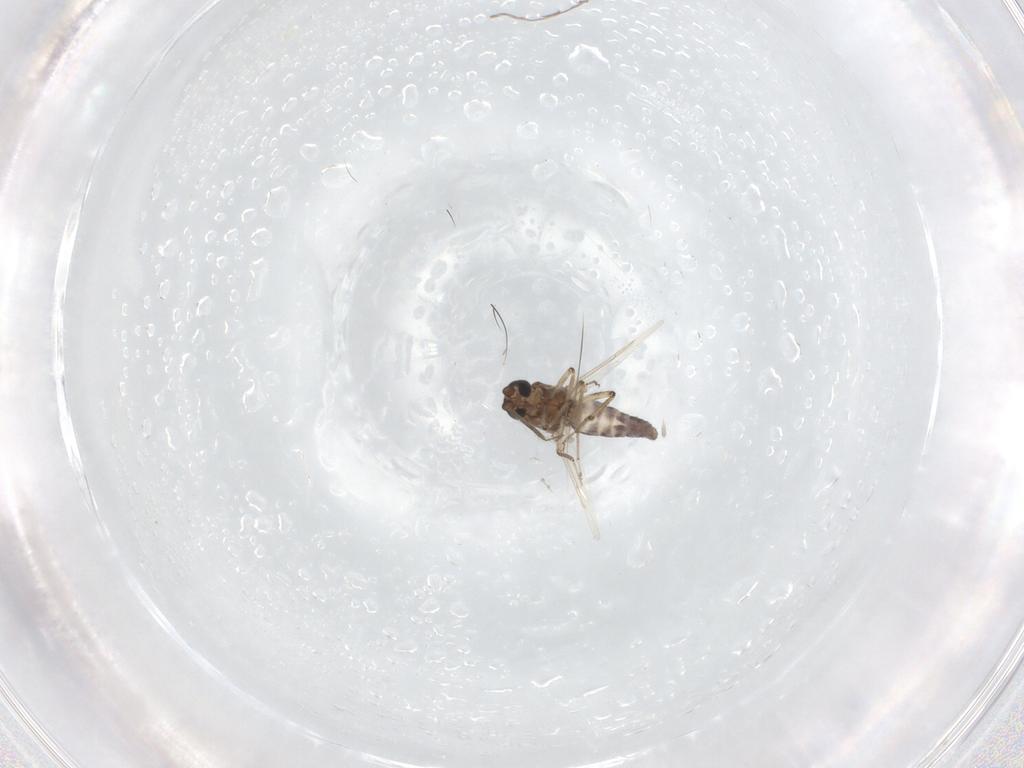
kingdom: Animalia
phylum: Arthropoda
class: Insecta
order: Diptera
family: Ceratopogonidae
